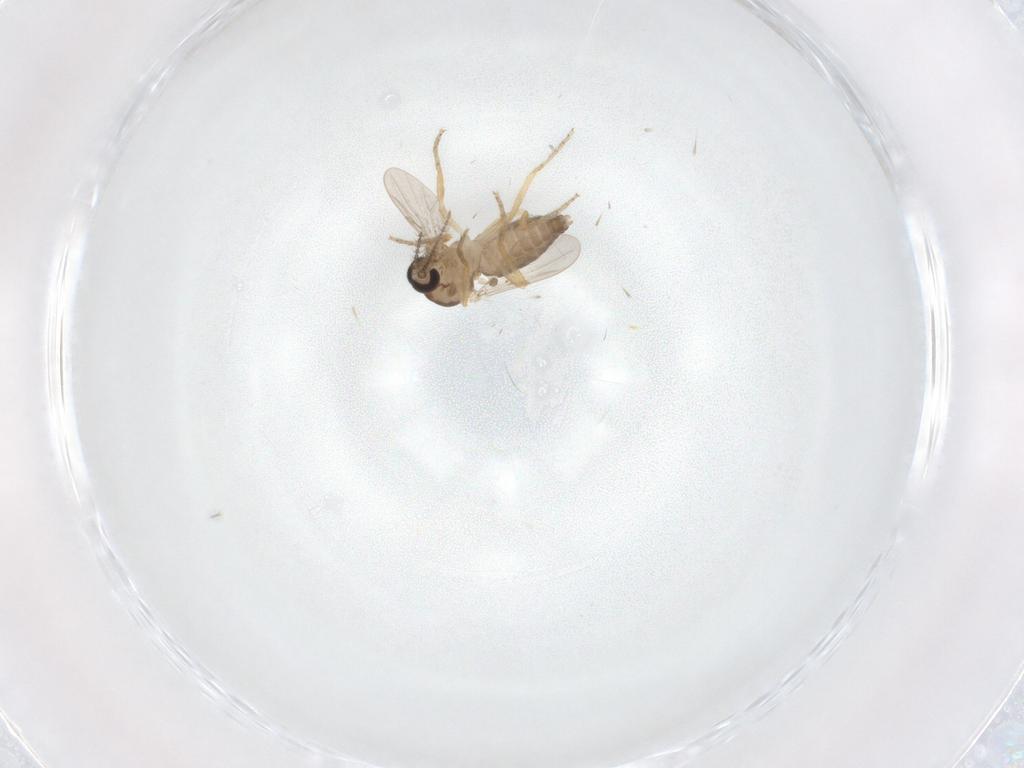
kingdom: Animalia
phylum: Arthropoda
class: Insecta
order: Diptera
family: Ceratopogonidae
